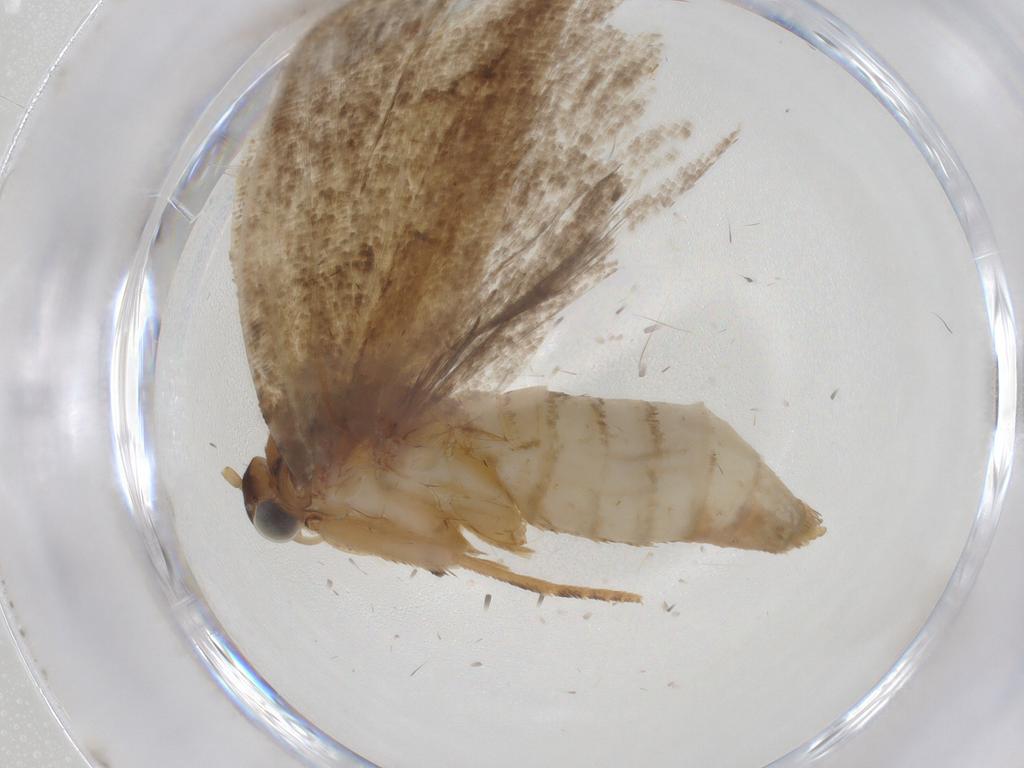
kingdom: Animalia
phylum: Arthropoda
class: Insecta
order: Lepidoptera
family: Tortricidae
